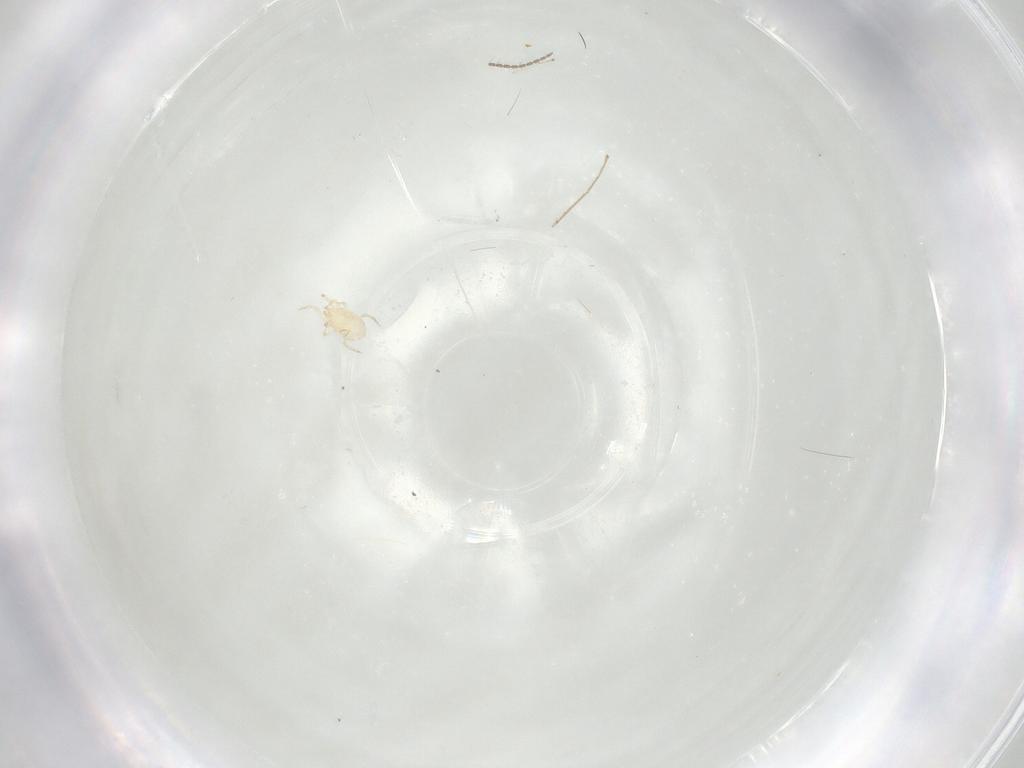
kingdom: Animalia
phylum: Arthropoda
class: Insecta
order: Diptera
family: Cecidomyiidae
